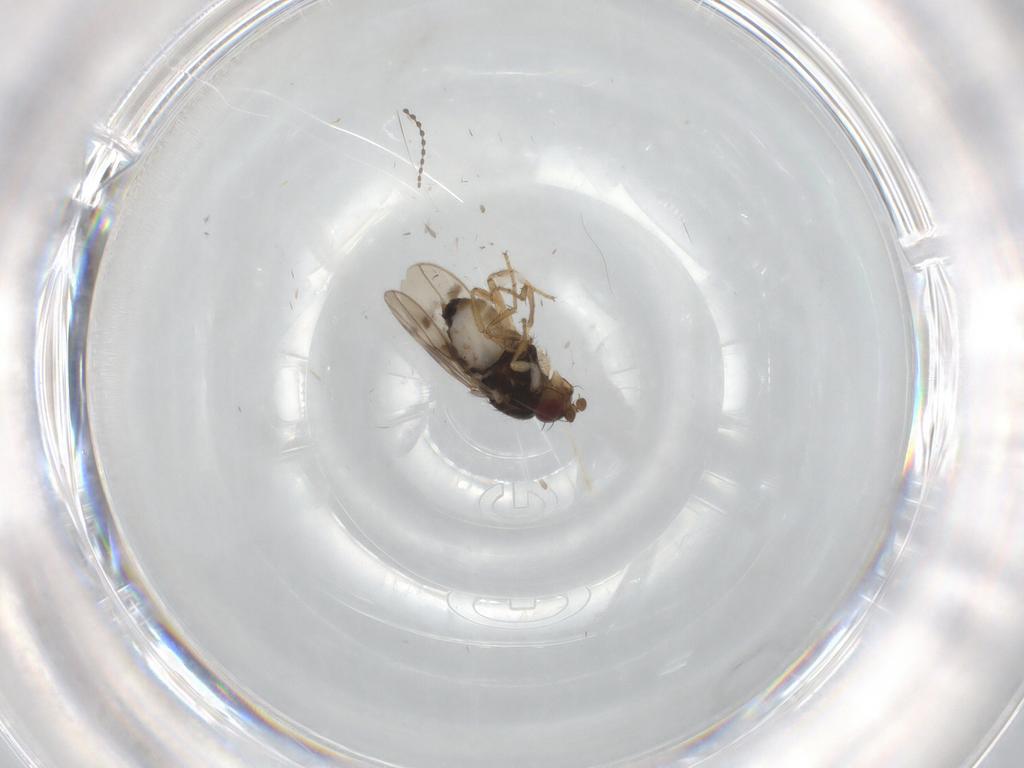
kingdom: Animalia
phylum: Arthropoda
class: Insecta
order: Diptera
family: Sphaeroceridae
